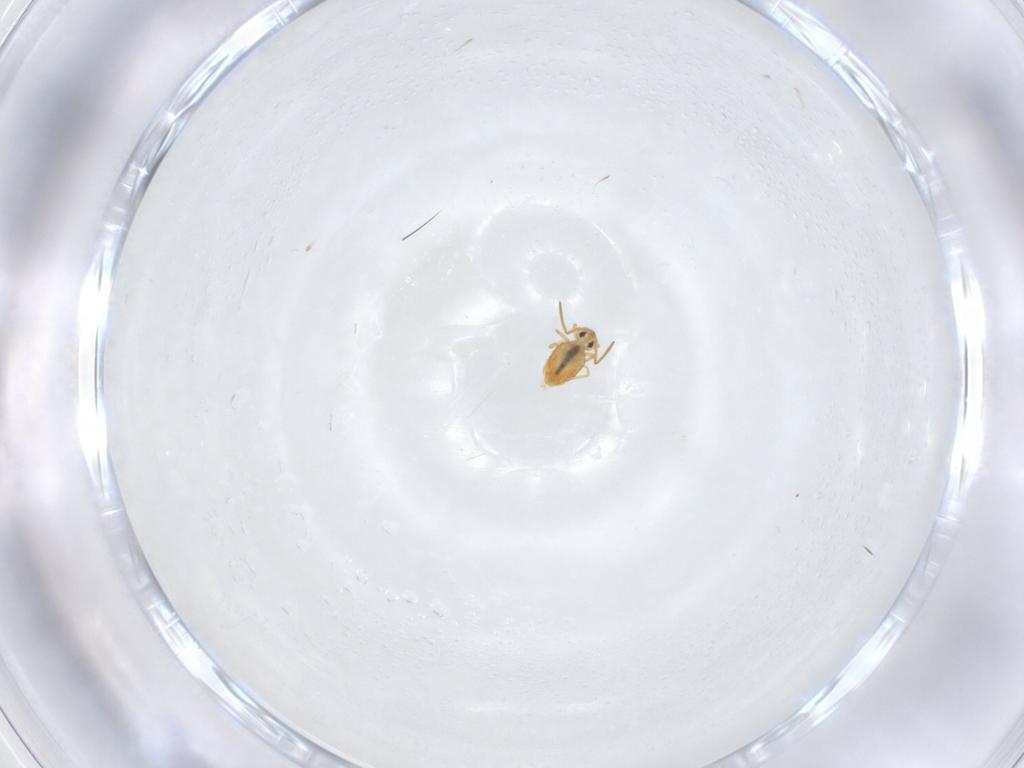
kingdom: Animalia
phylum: Arthropoda
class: Collembola
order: Symphypleona
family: Katiannidae
